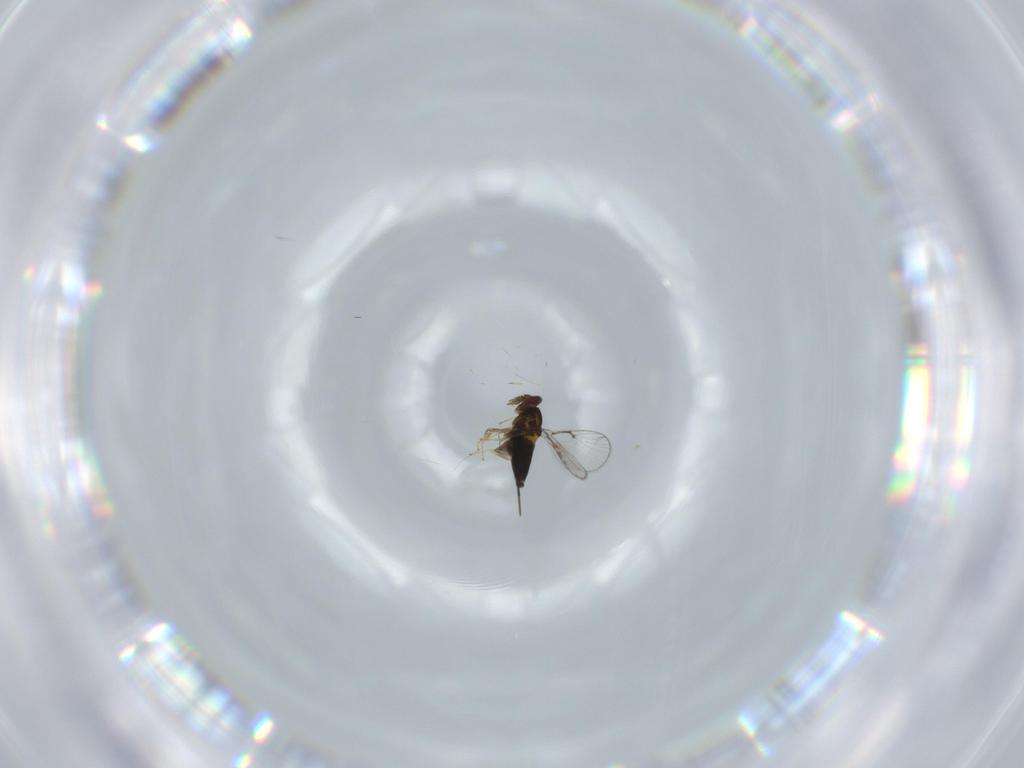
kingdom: Animalia
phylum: Arthropoda
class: Insecta
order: Hymenoptera
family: Trichogrammatidae
